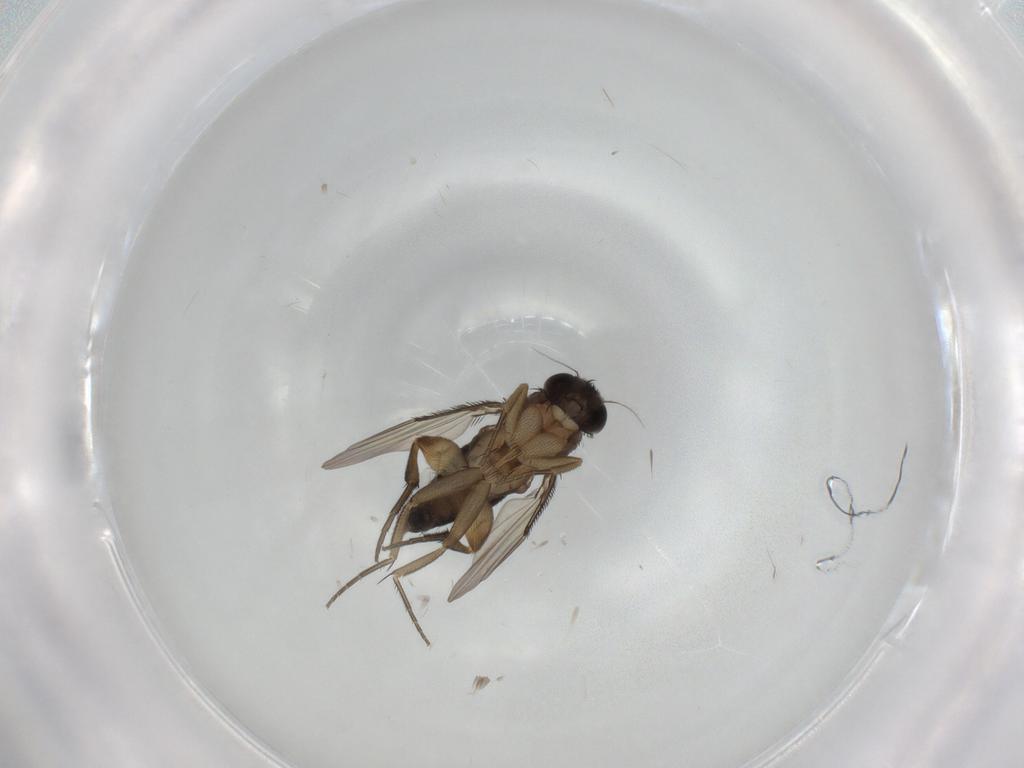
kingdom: Animalia
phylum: Arthropoda
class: Insecta
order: Diptera
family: Phoridae
